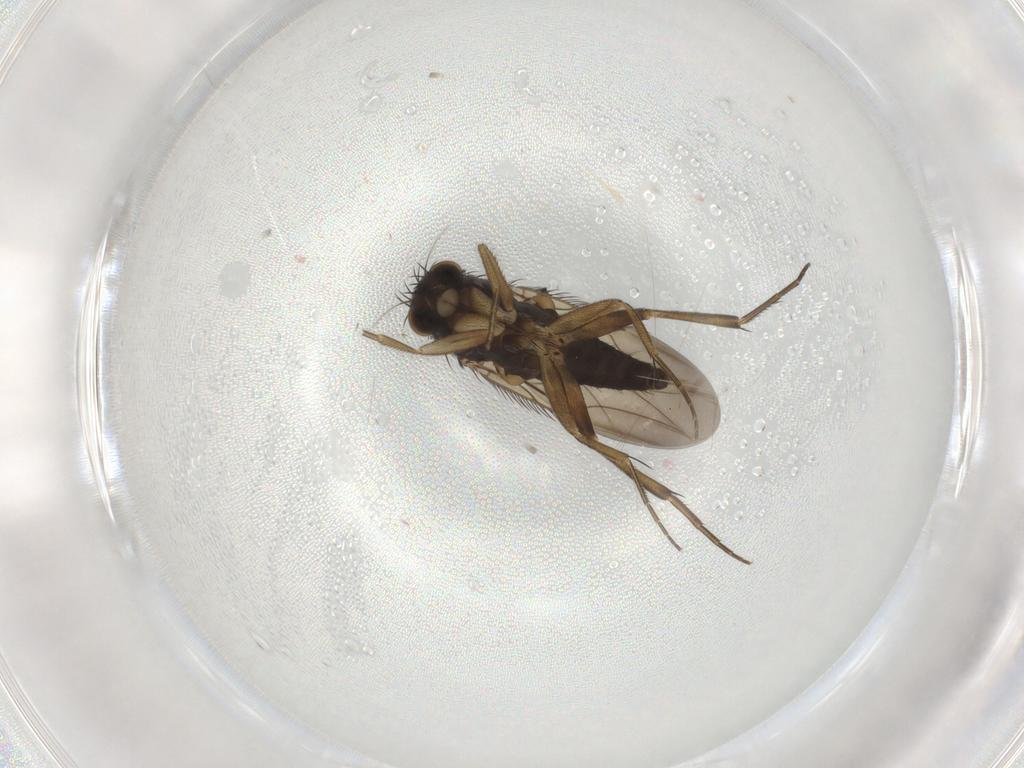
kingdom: Animalia
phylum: Arthropoda
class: Insecta
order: Diptera
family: Phoridae
